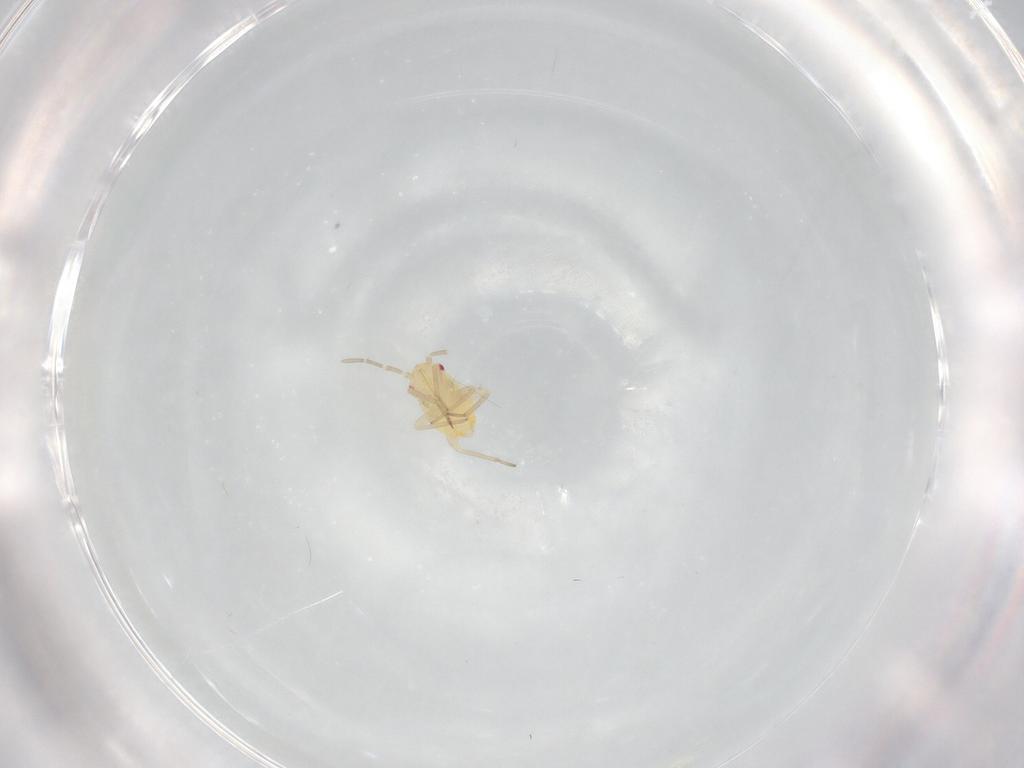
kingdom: Animalia
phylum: Arthropoda
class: Insecta
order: Hemiptera
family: Miridae
